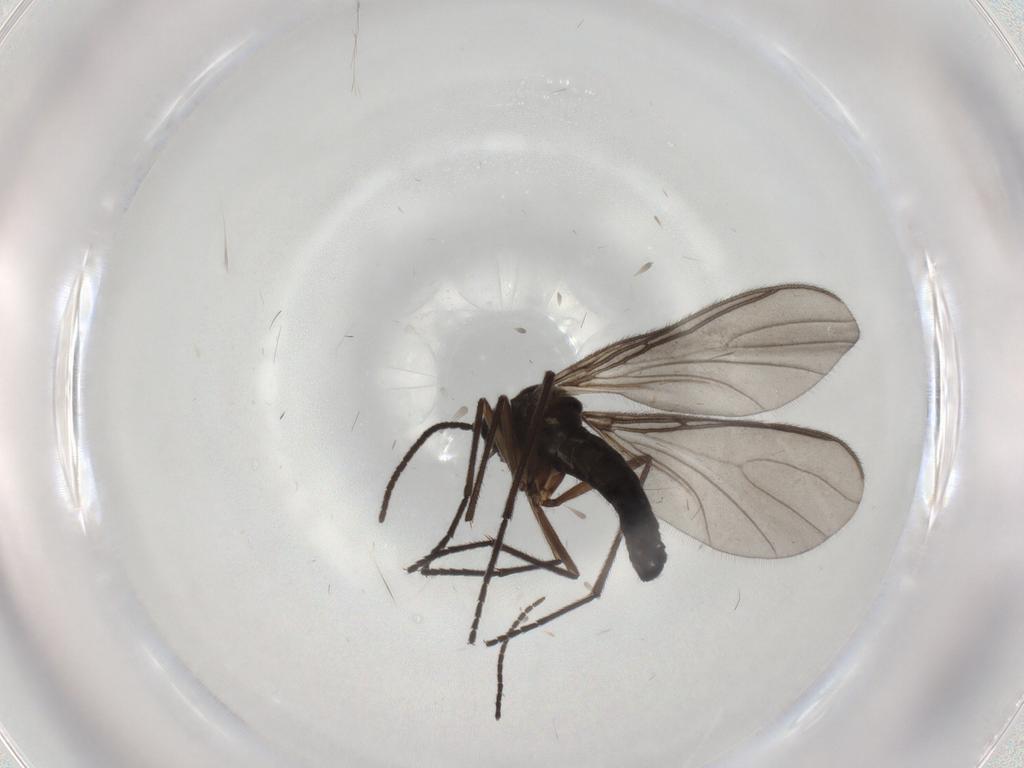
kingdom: Animalia
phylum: Arthropoda
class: Insecta
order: Diptera
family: Sciaridae
